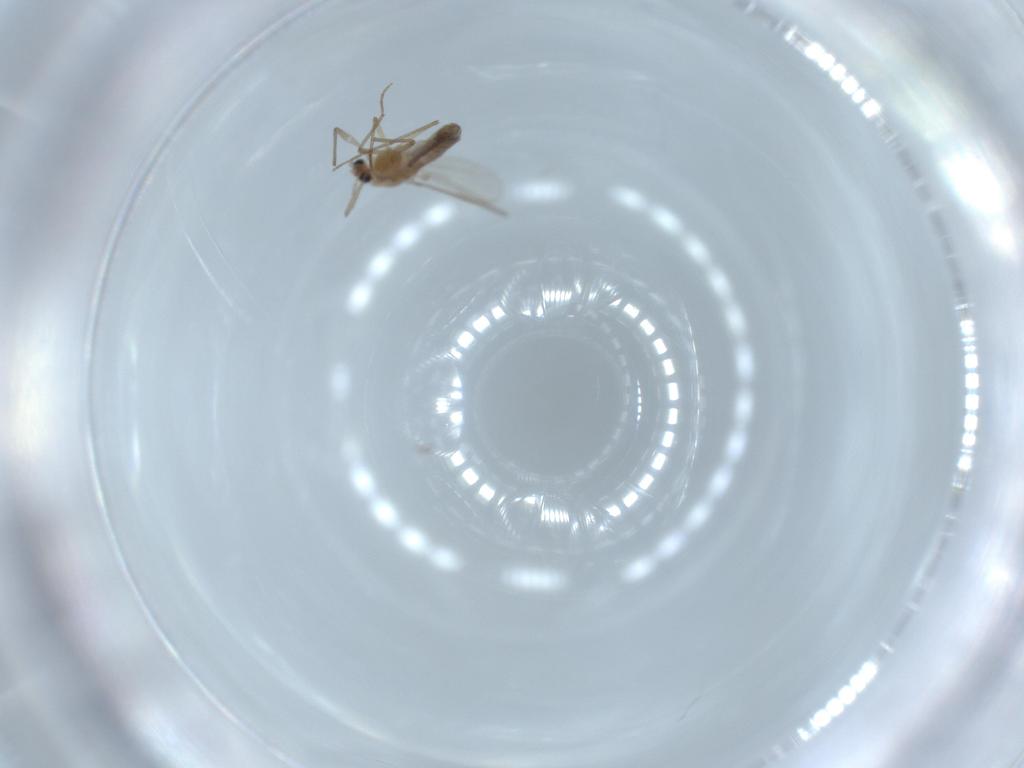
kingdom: Animalia
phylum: Arthropoda
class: Insecta
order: Diptera
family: Chironomidae
